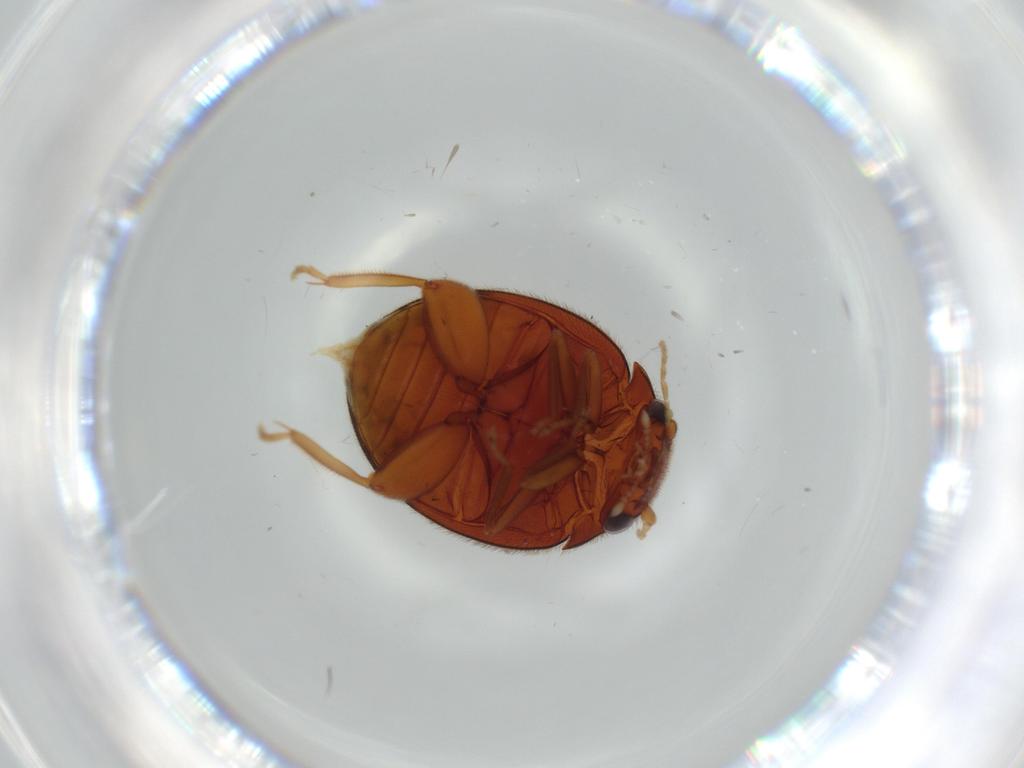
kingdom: Animalia
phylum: Arthropoda
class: Insecta
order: Coleoptera
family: Scirtidae
